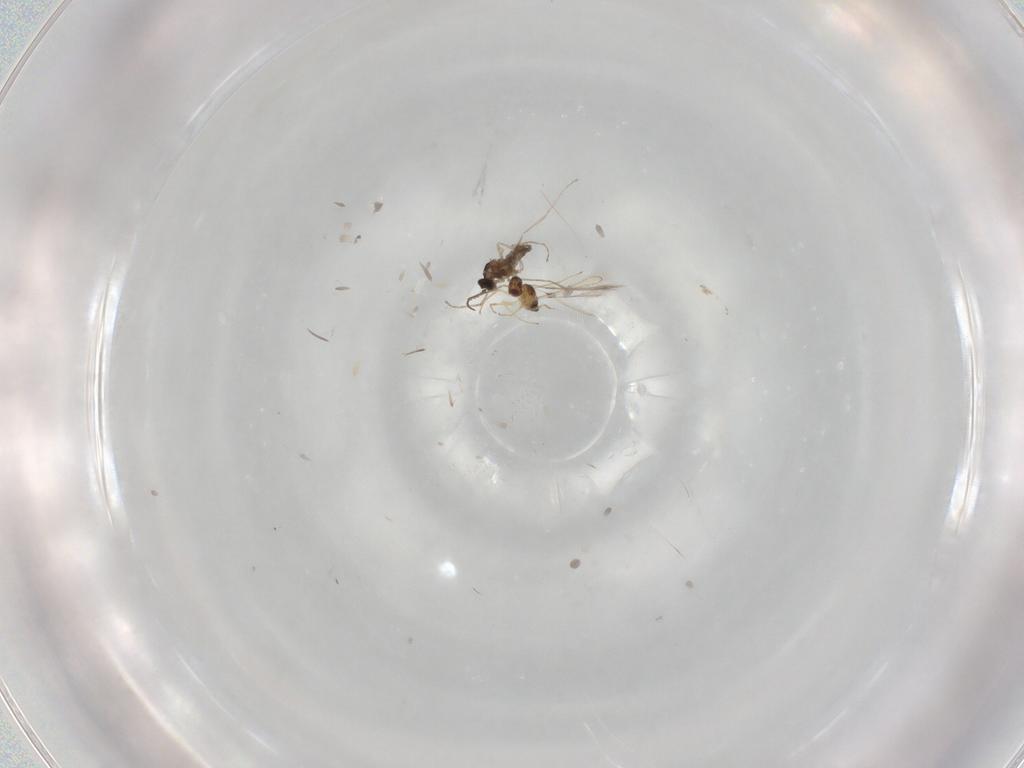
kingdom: Animalia
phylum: Arthropoda
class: Insecta
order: Hymenoptera
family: Mymaridae
